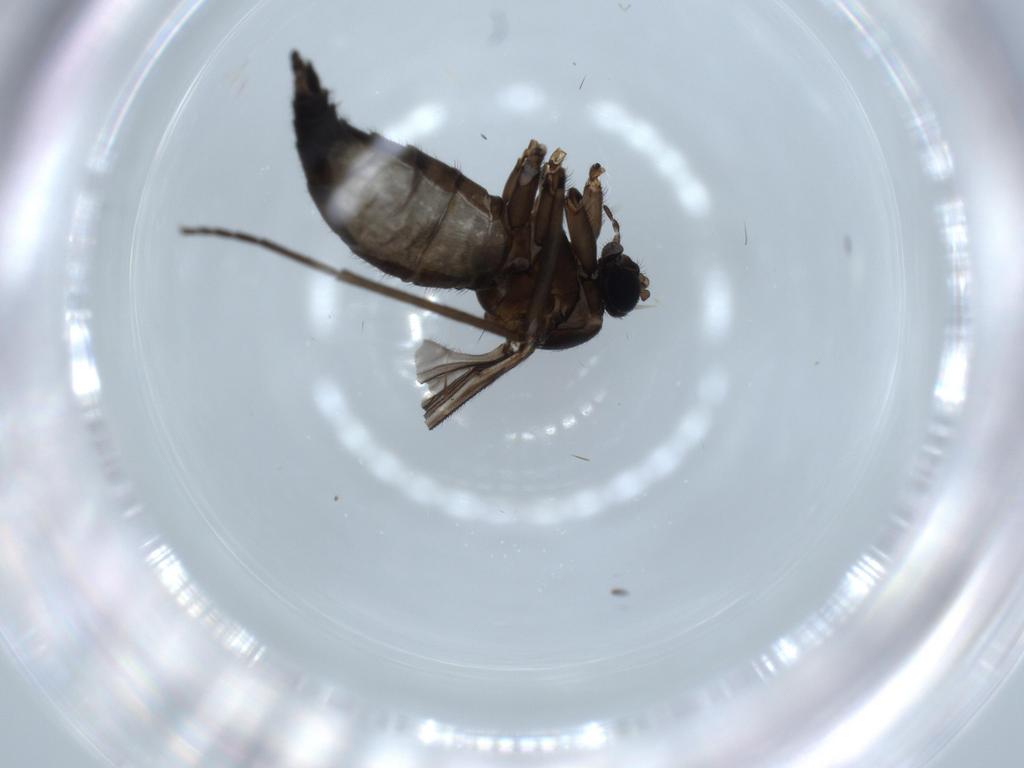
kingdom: Animalia
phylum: Arthropoda
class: Insecta
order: Diptera
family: Sciaridae
